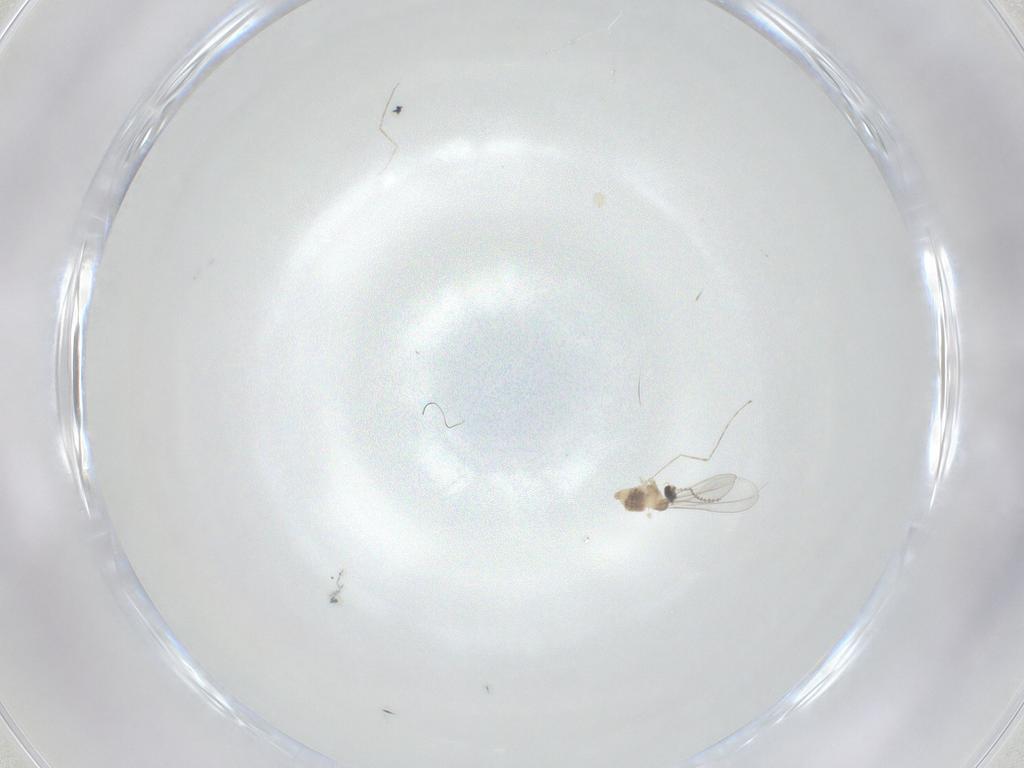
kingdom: Animalia
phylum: Arthropoda
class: Insecta
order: Diptera
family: Cecidomyiidae
